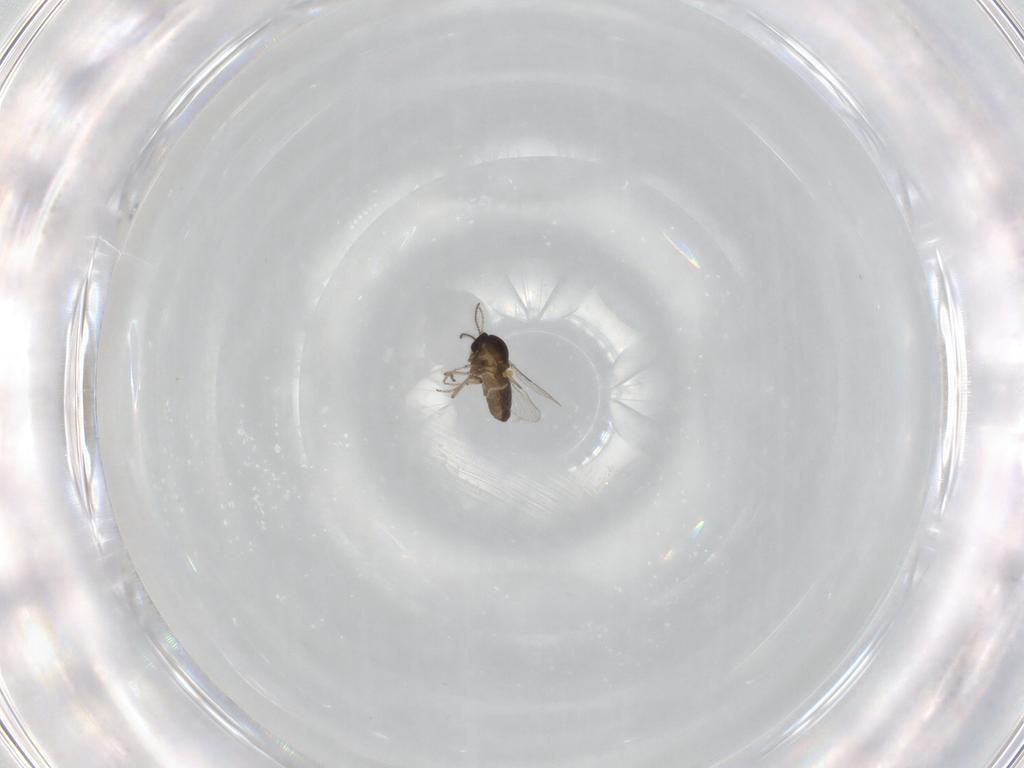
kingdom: Animalia
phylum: Arthropoda
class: Insecta
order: Diptera
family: Ceratopogonidae
